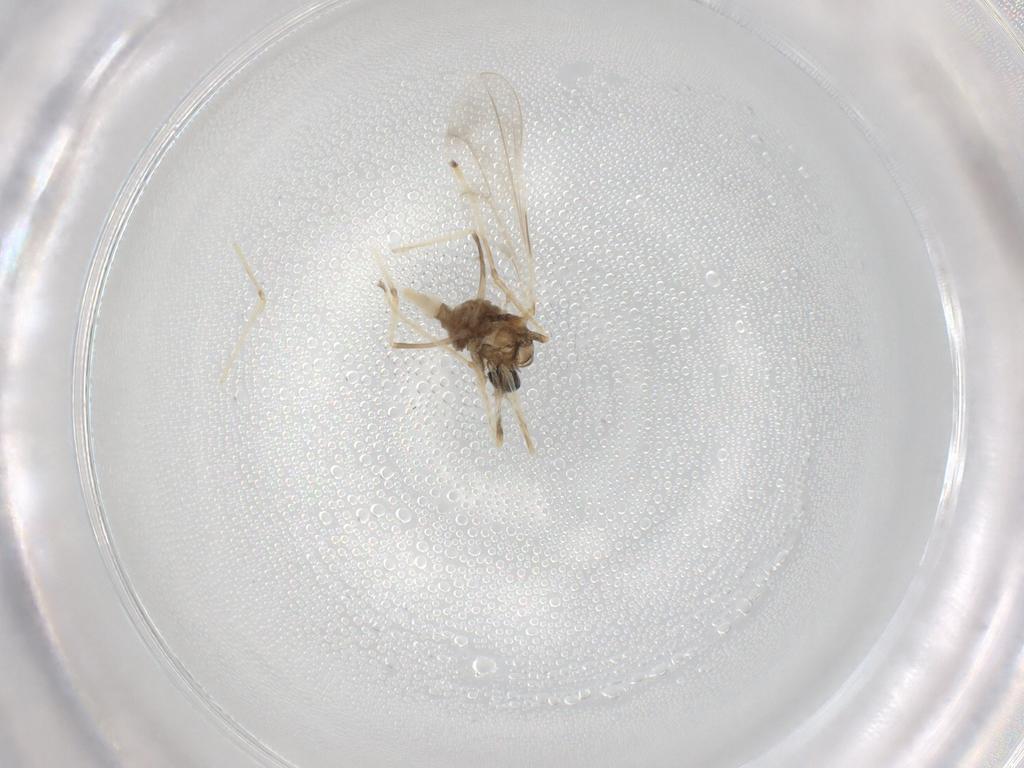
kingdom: Animalia
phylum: Arthropoda
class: Insecta
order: Diptera
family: Cecidomyiidae
